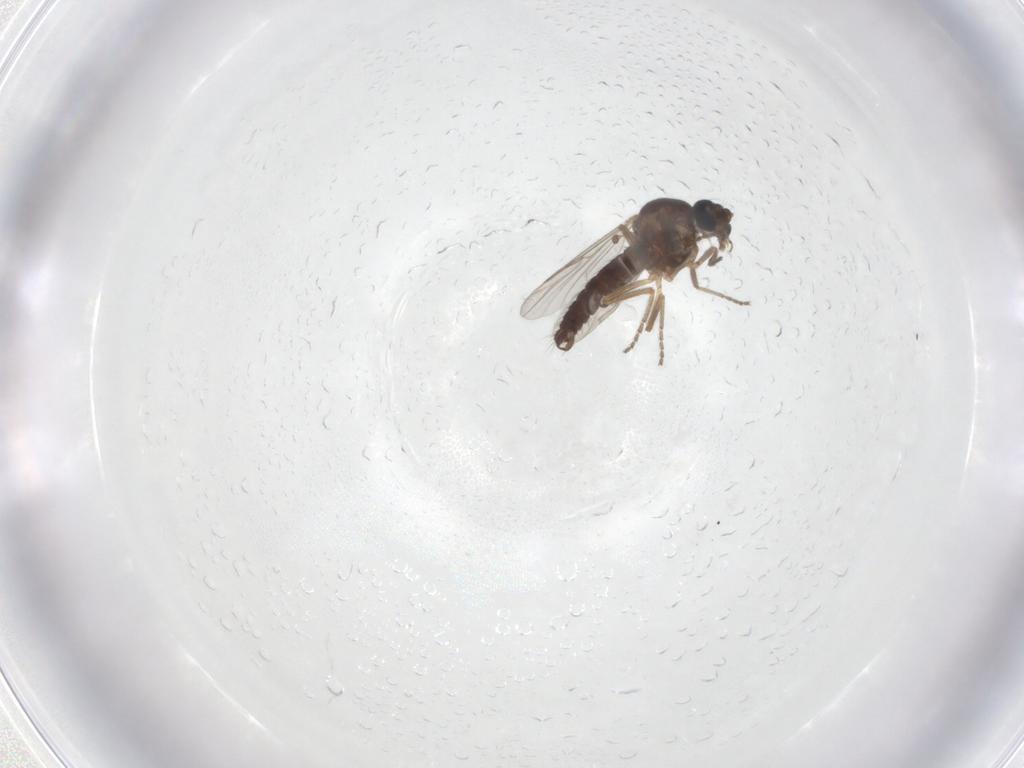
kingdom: Animalia
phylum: Arthropoda
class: Insecta
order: Diptera
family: Ceratopogonidae
